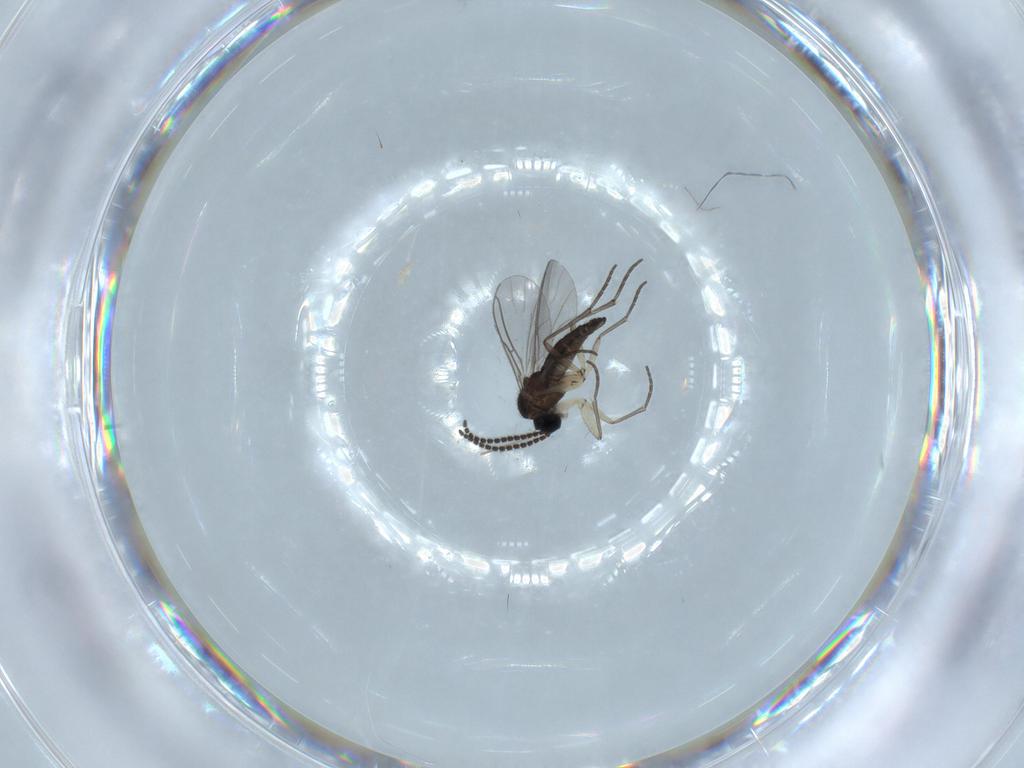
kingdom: Animalia
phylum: Arthropoda
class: Insecta
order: Diptera
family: Sciaridae
